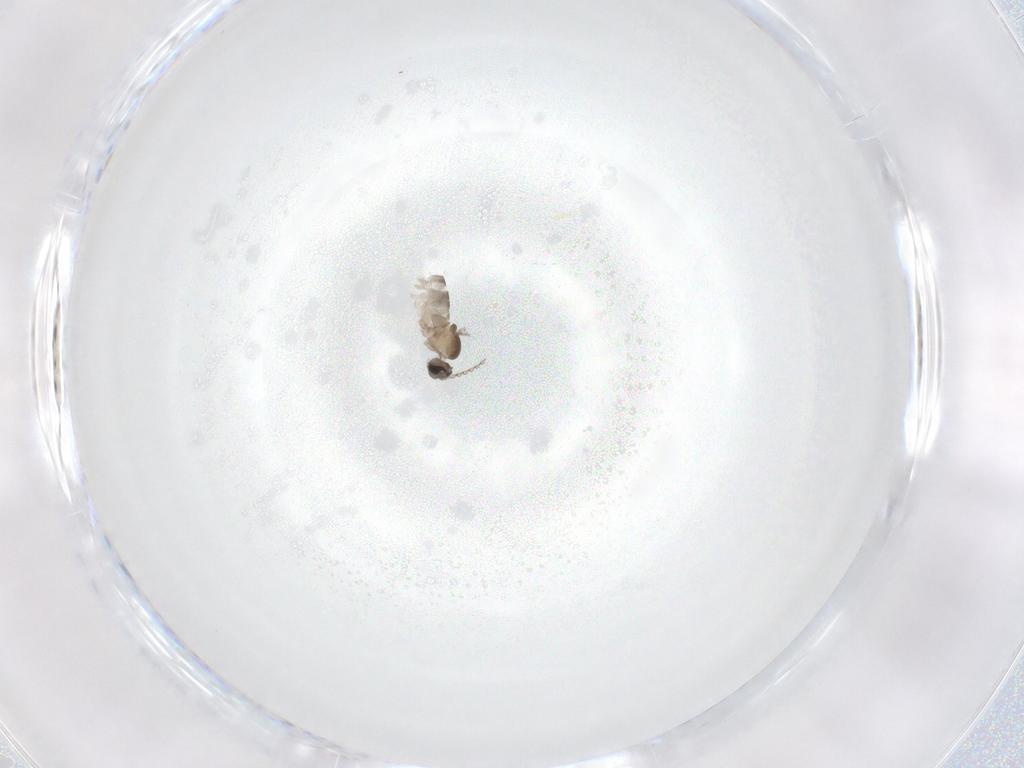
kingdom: Animalia
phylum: Arthropoda
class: Insecta
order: Diptera
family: Cecidomyiidae
